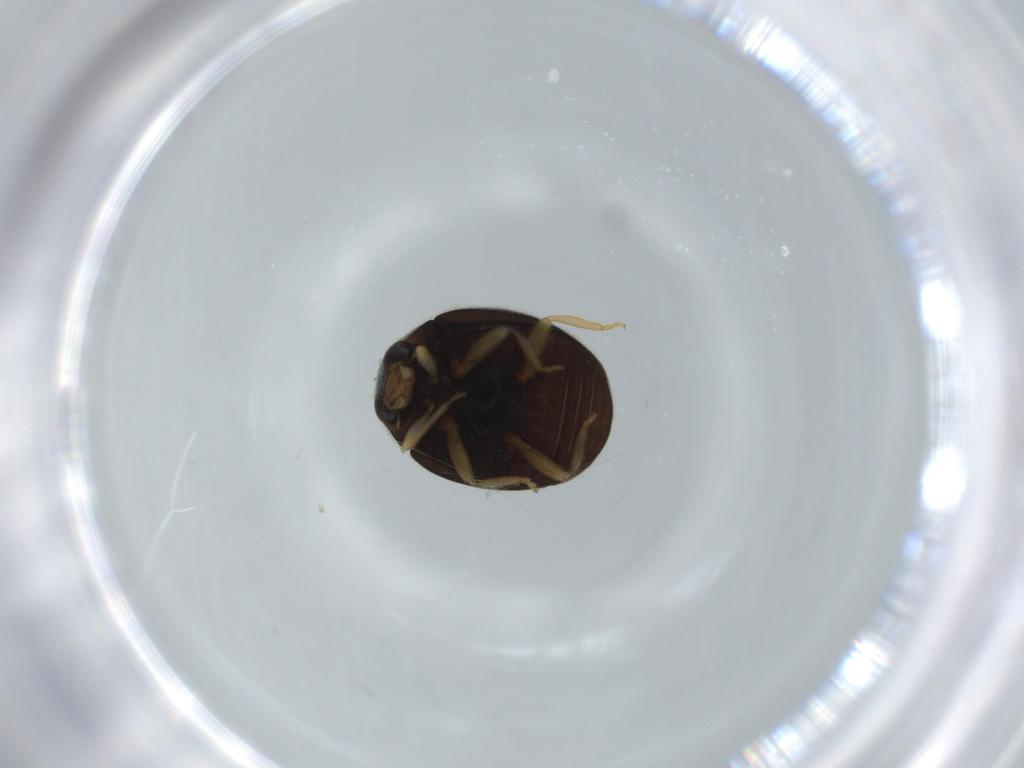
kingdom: Animalia
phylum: Arthropoda
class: Insecta
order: Coleoptera
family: Coccinellidae
